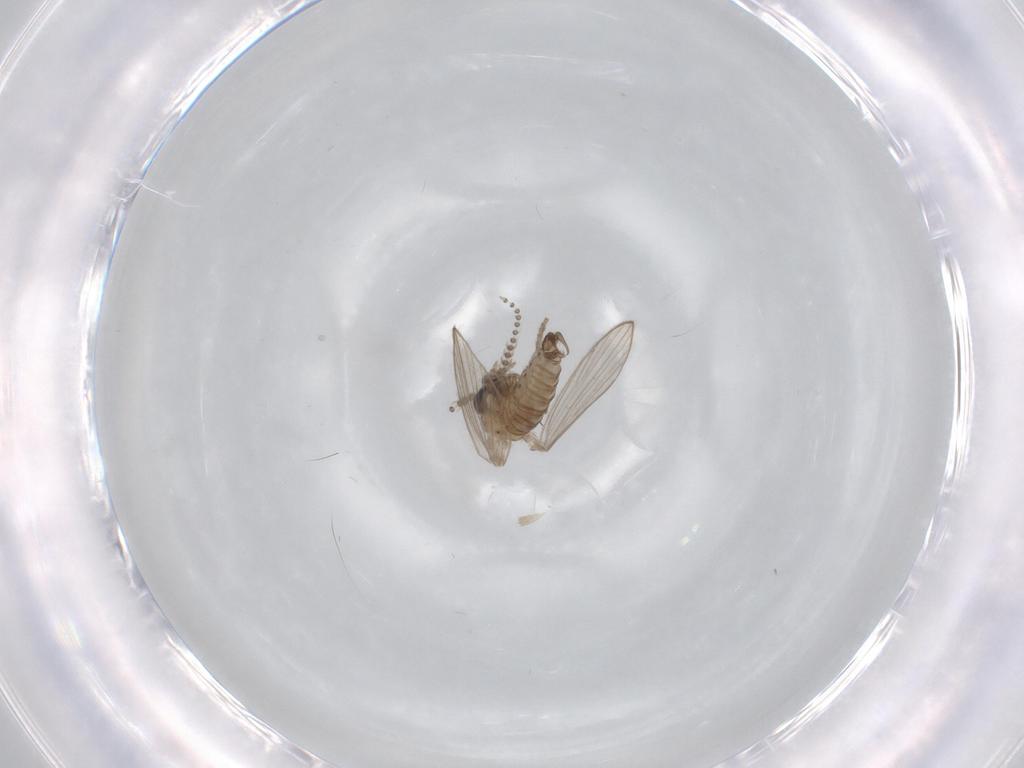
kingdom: Animalia
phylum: Arthropoda
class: Insecta
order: Diptera
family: Psychodidae
